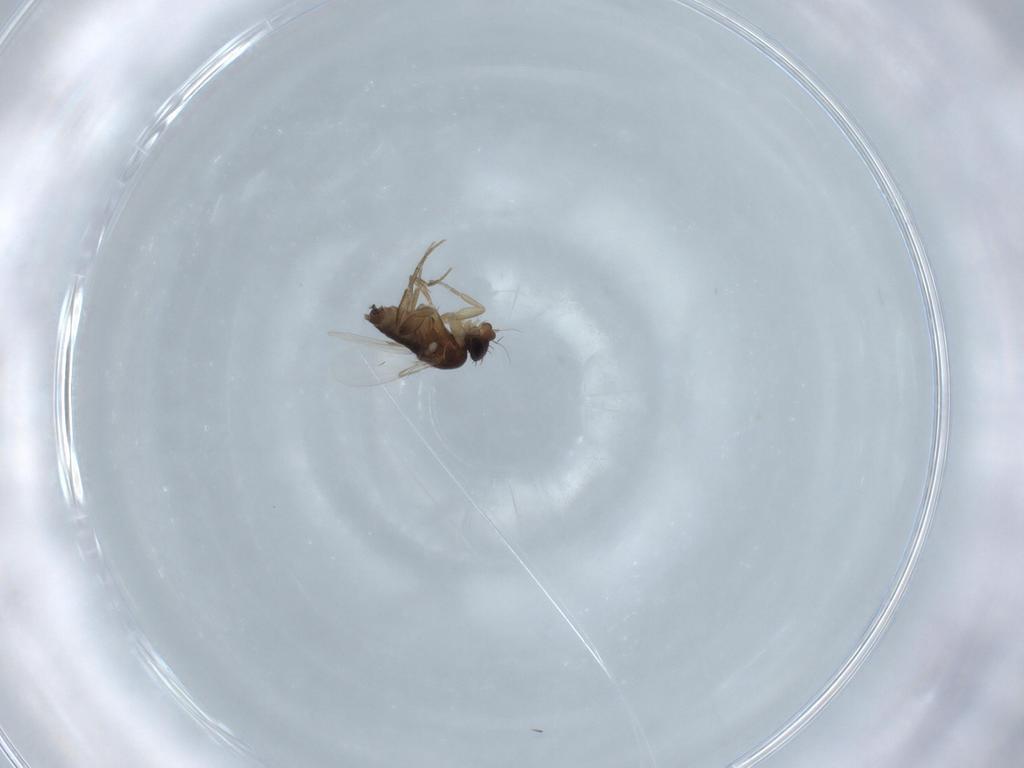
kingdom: Animalia
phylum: Arthropoda
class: Insecta
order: Diptera
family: Phoridae
